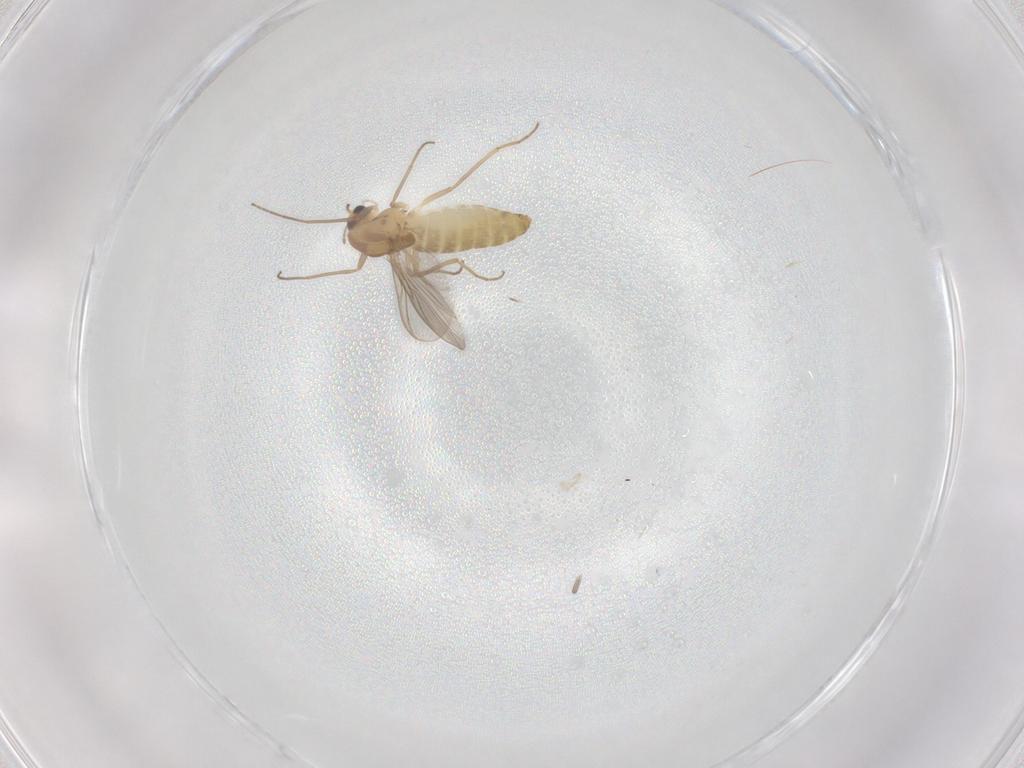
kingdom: Animalia
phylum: Arthropoda
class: Insecta
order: Diptera
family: Chironomidae
